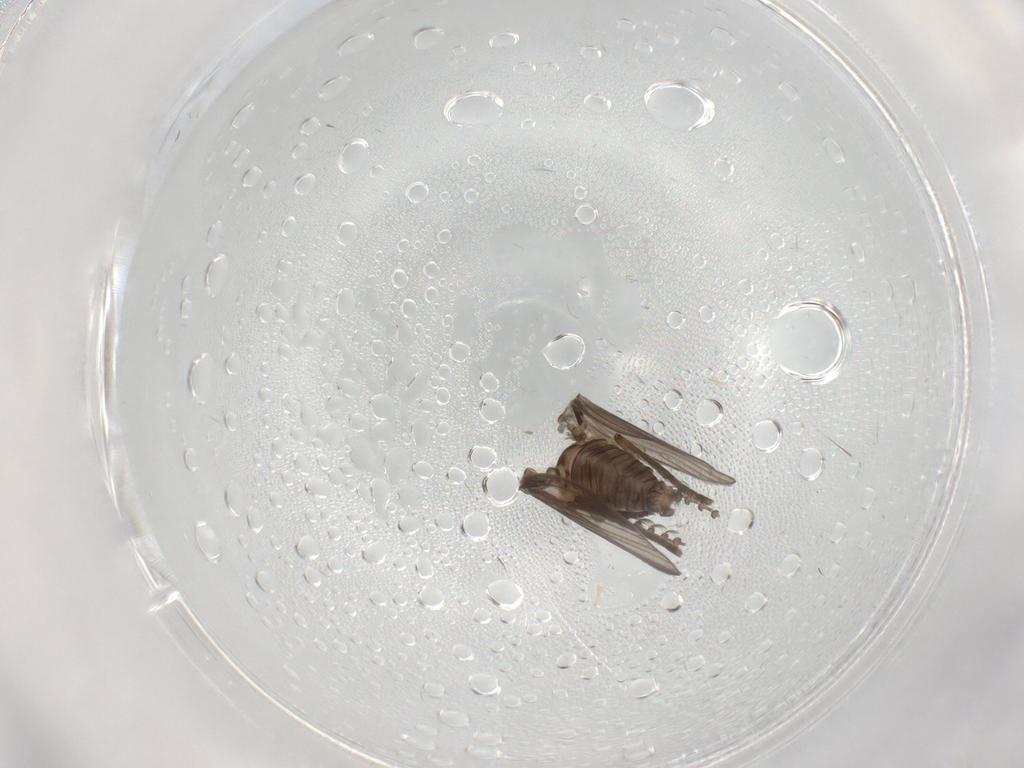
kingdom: Animalia
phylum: Arthropoda
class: Insecta
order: Diptera
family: Psychodidae
